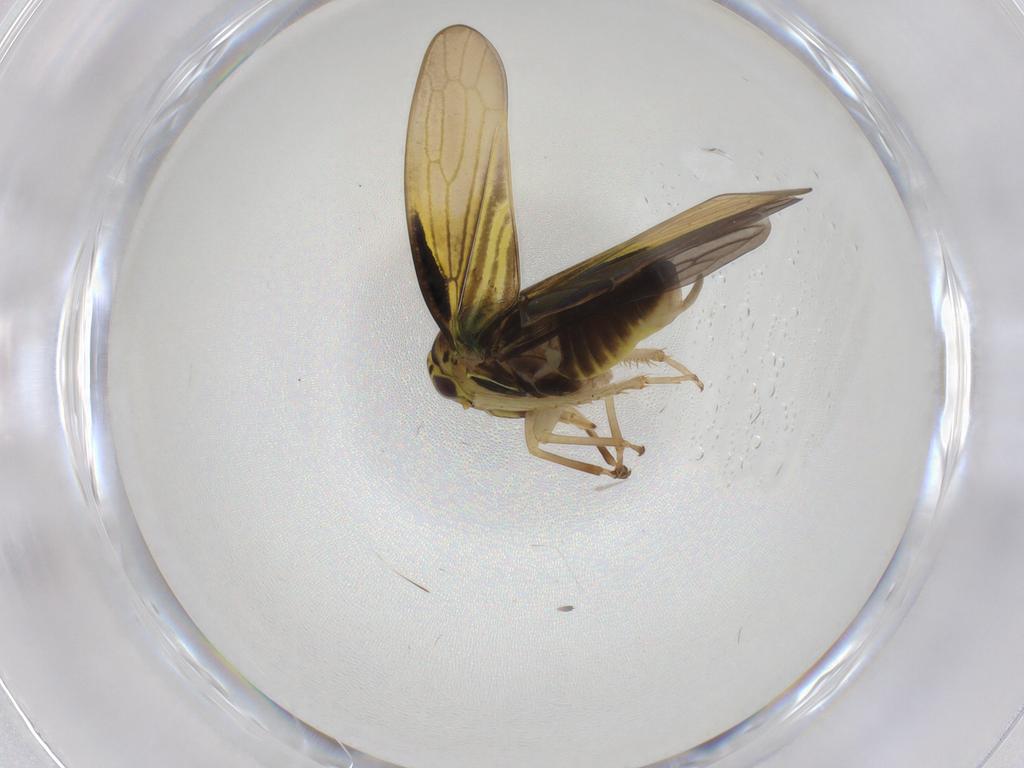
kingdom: Animalia
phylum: Arthropoda
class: Insecta
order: Hemiptera
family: Cicadellidae
